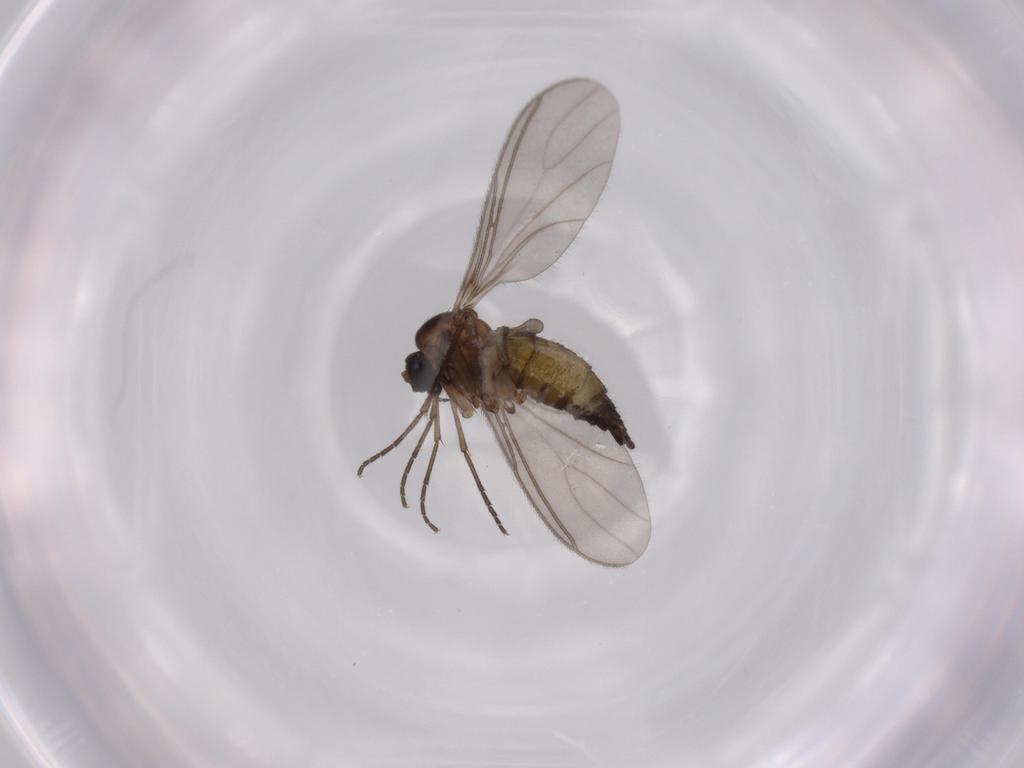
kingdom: Animalia
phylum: Arthropoda
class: Insecta
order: Diptera
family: Sciaridae
